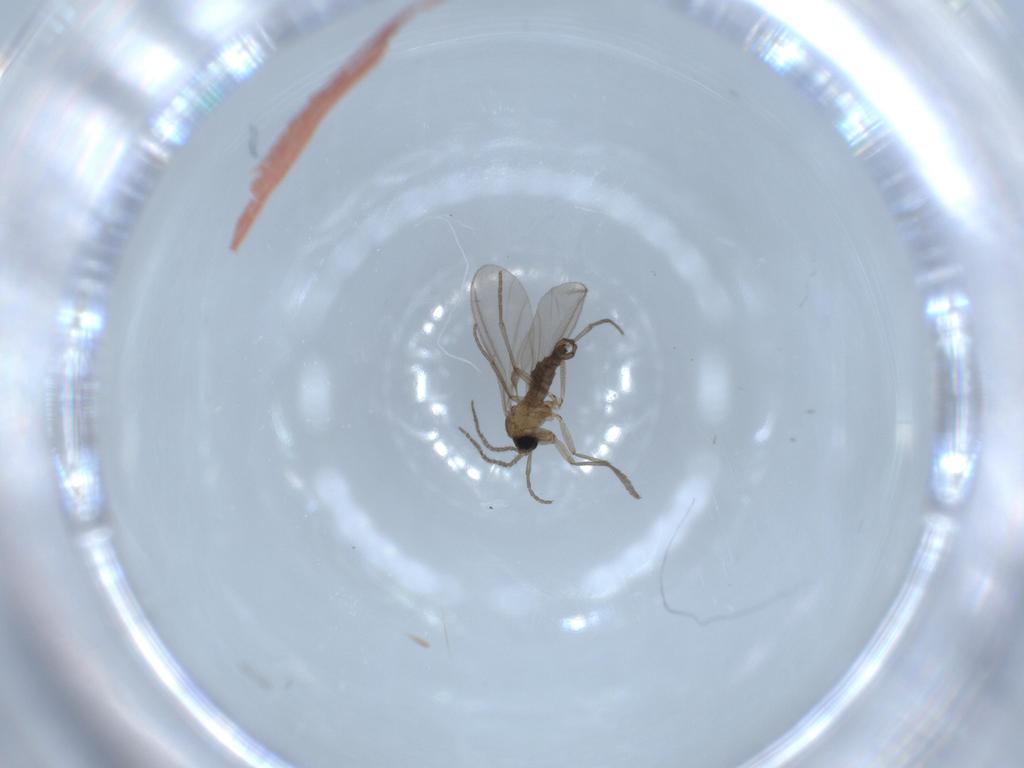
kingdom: Animalia
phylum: Arthropoda
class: Insecta
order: Diptera
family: Sciaridae
